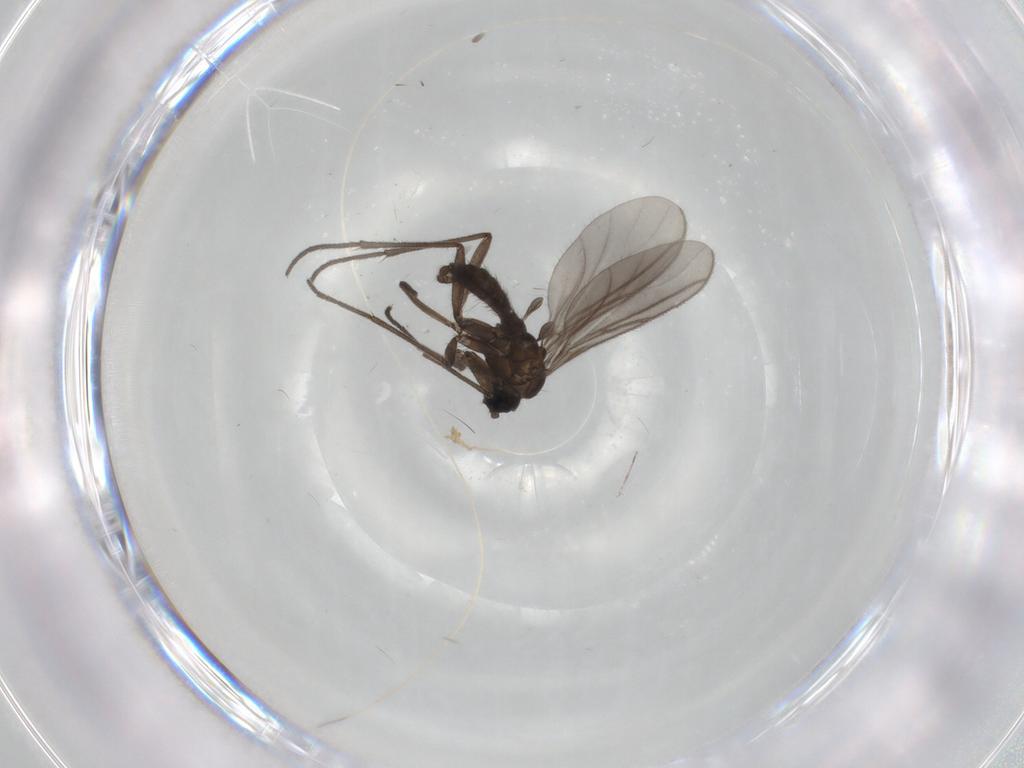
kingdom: Animalia
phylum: Arthropoda
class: Insecta
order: Diptera
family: Sciaridae
